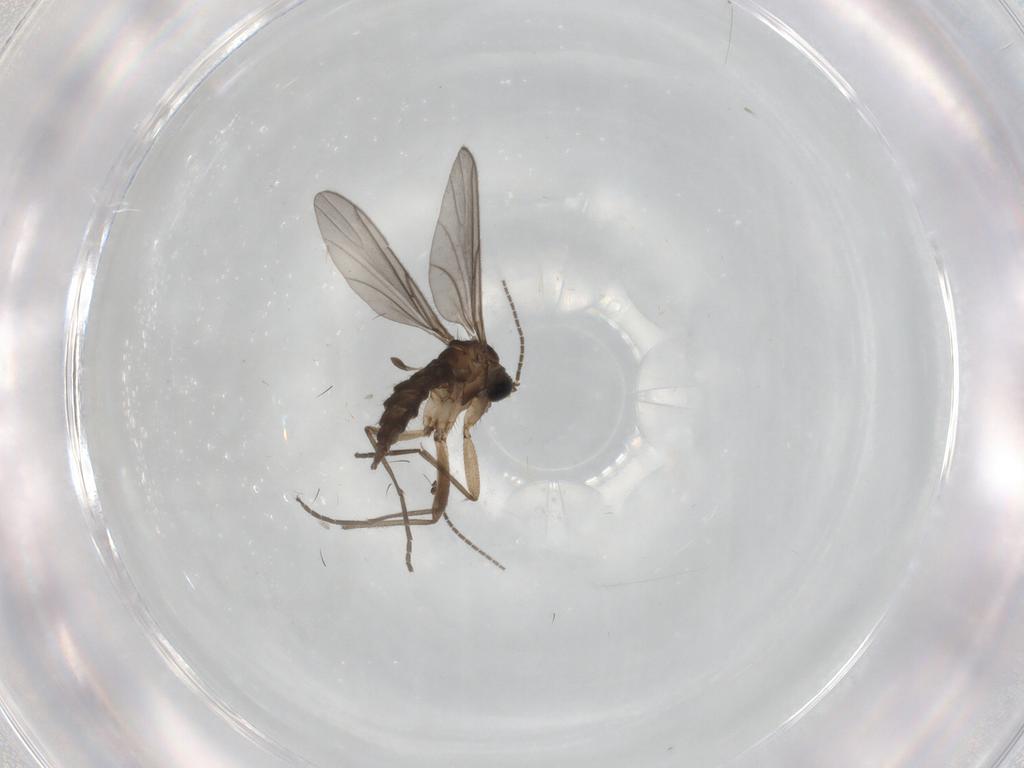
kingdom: Animalia
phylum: Arthropoda
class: Insecta
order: Diptera
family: Sciaridae
